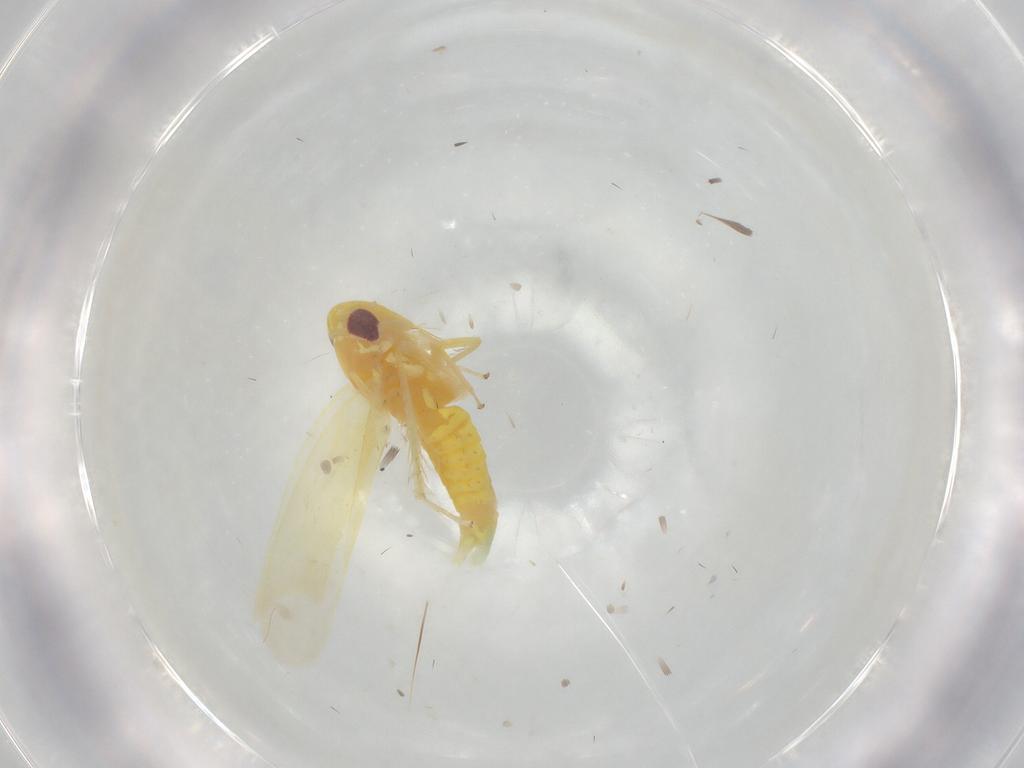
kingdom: Animalia
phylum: Arthropoda
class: Insecta
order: Hemiptera
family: Cicadellidae
